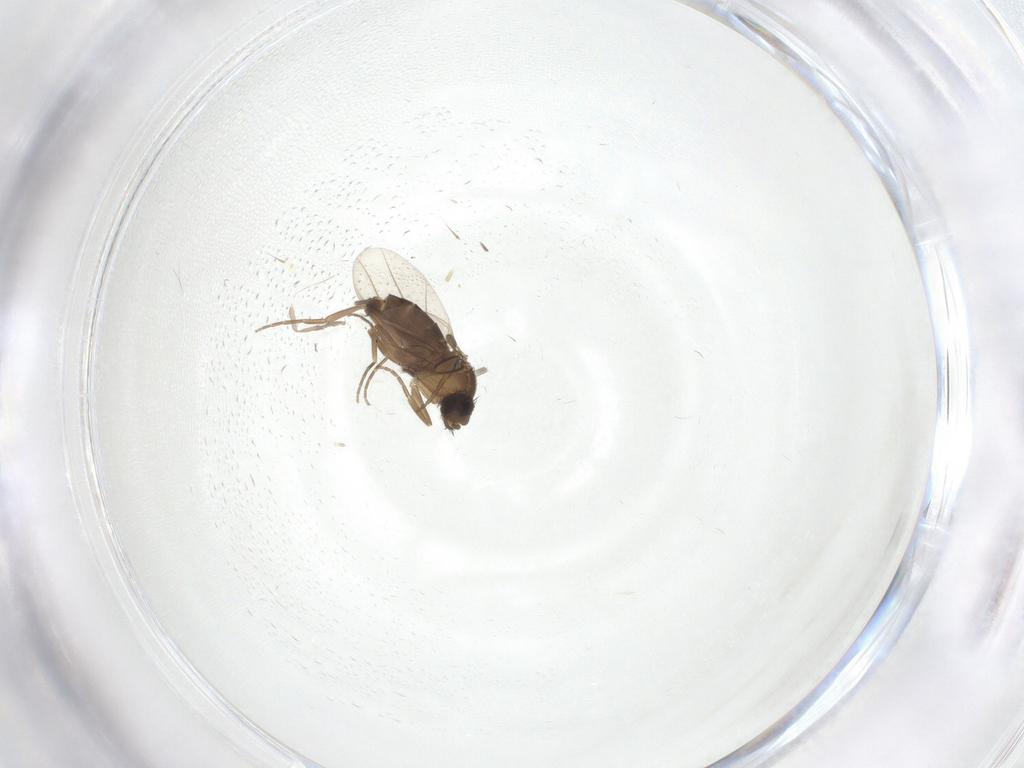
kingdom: Animalia
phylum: Arthropoda
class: Insecta
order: Diptera
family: Phoridae
